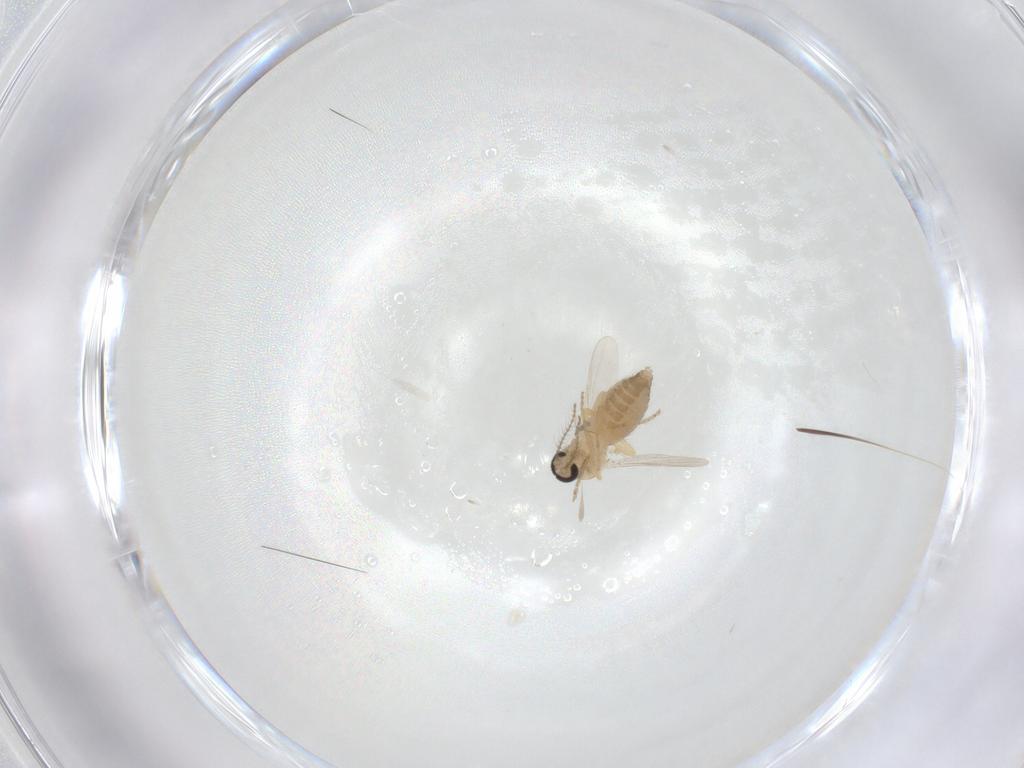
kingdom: Animalia
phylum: Arthropoda
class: Insecta
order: Diptera
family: Ceratopogonidae
